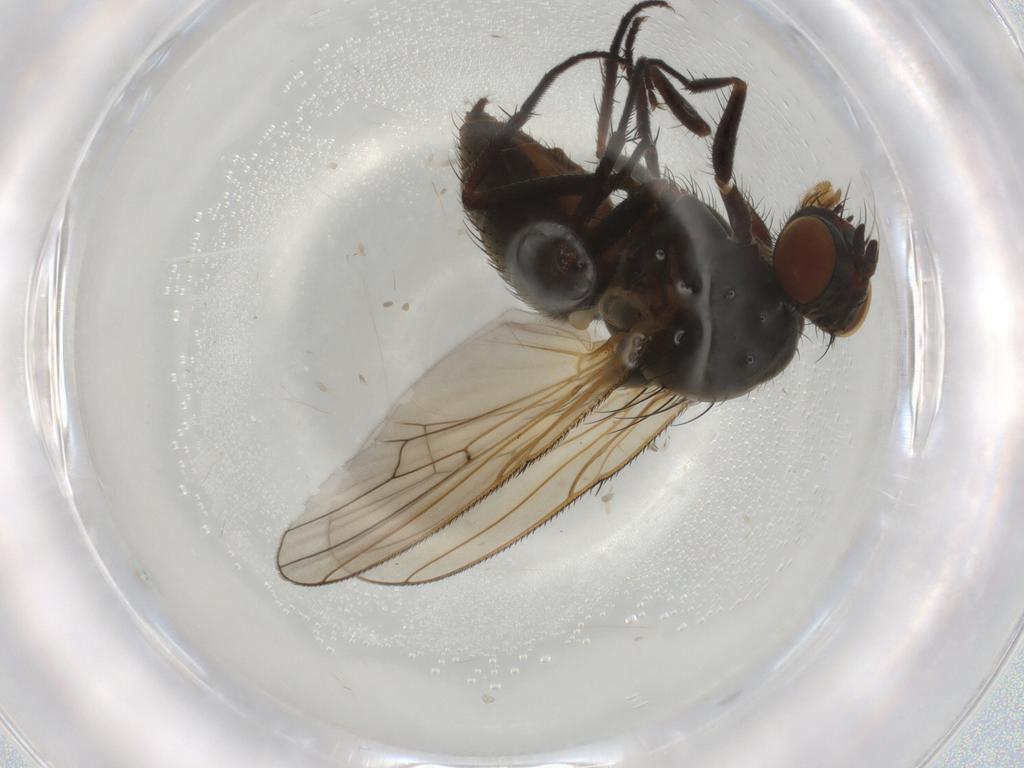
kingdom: Animalia
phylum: Arthropoda
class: Insecta
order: Diptera
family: Anthomyiidae
